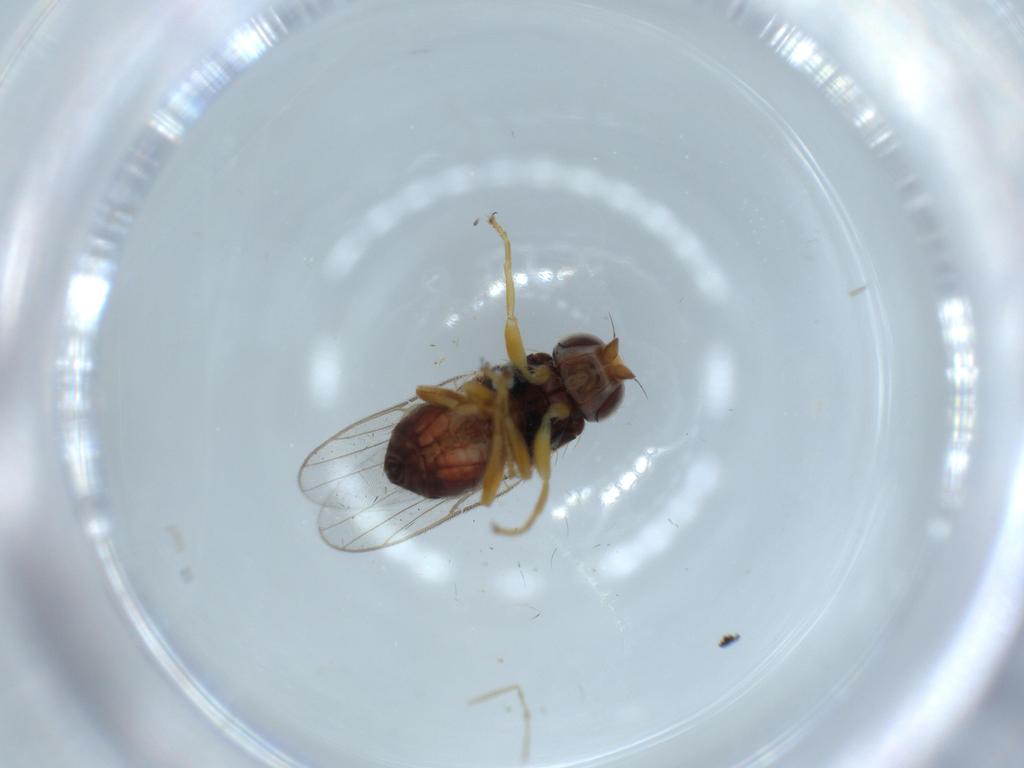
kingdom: Animalia
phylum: Arthropoda
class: Insecta
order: Diptera
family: Chloropidae
